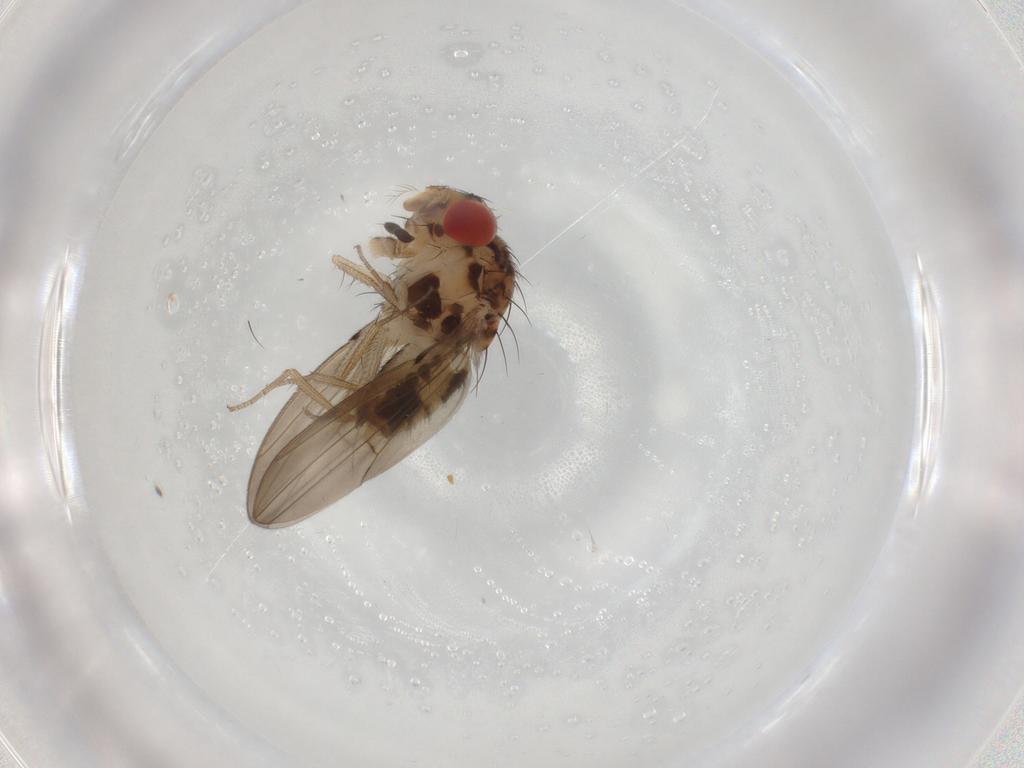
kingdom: Animalia
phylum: Arthropoda
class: Insecta
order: Diptera
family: Drosophilidae
